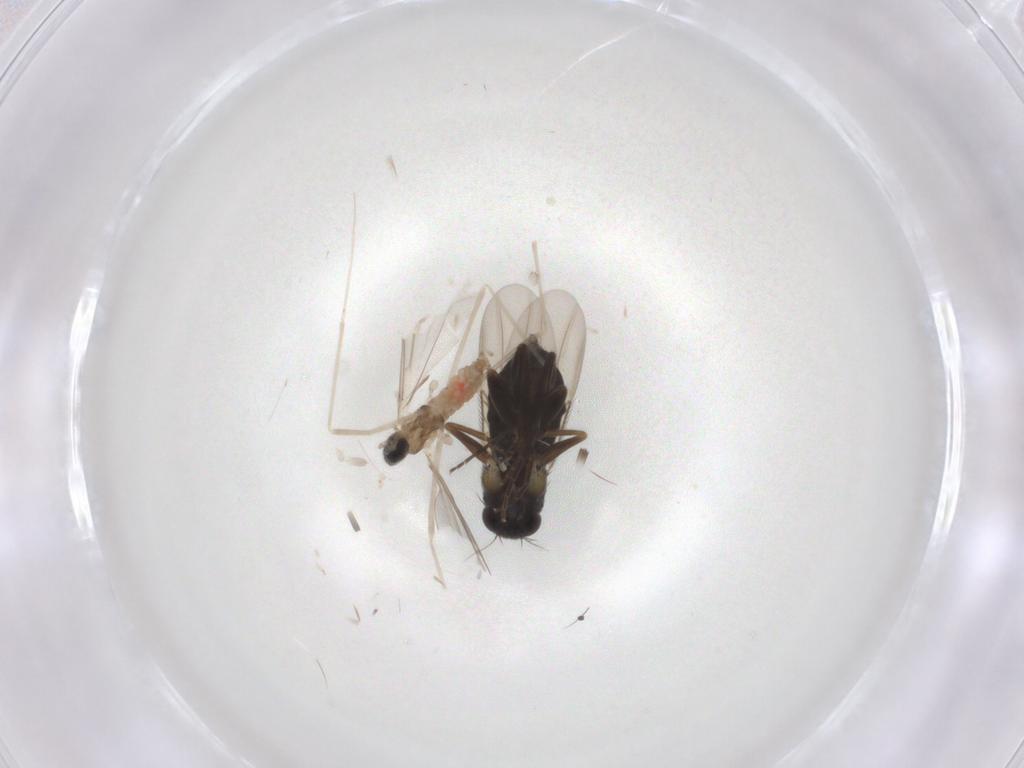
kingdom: Animalia
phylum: Arthropoda
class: Insecta
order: Diptera
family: Phoridae
